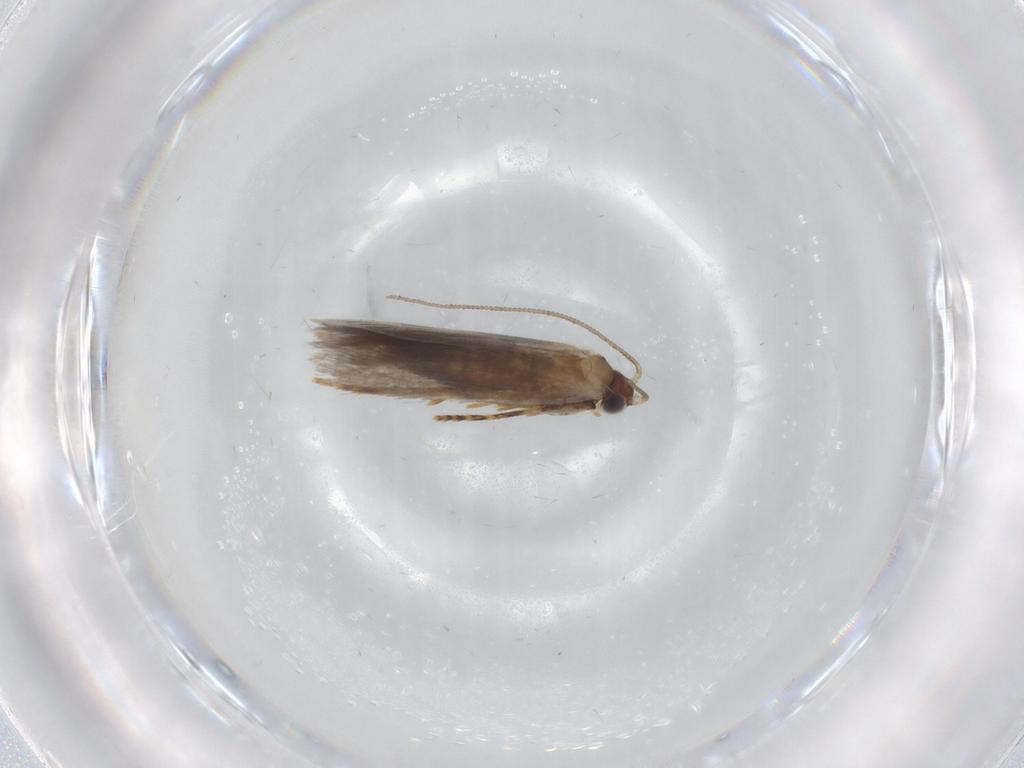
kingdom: Animalia
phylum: Arthropoda
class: Insecta
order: Lepidoptera
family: Tineidae
